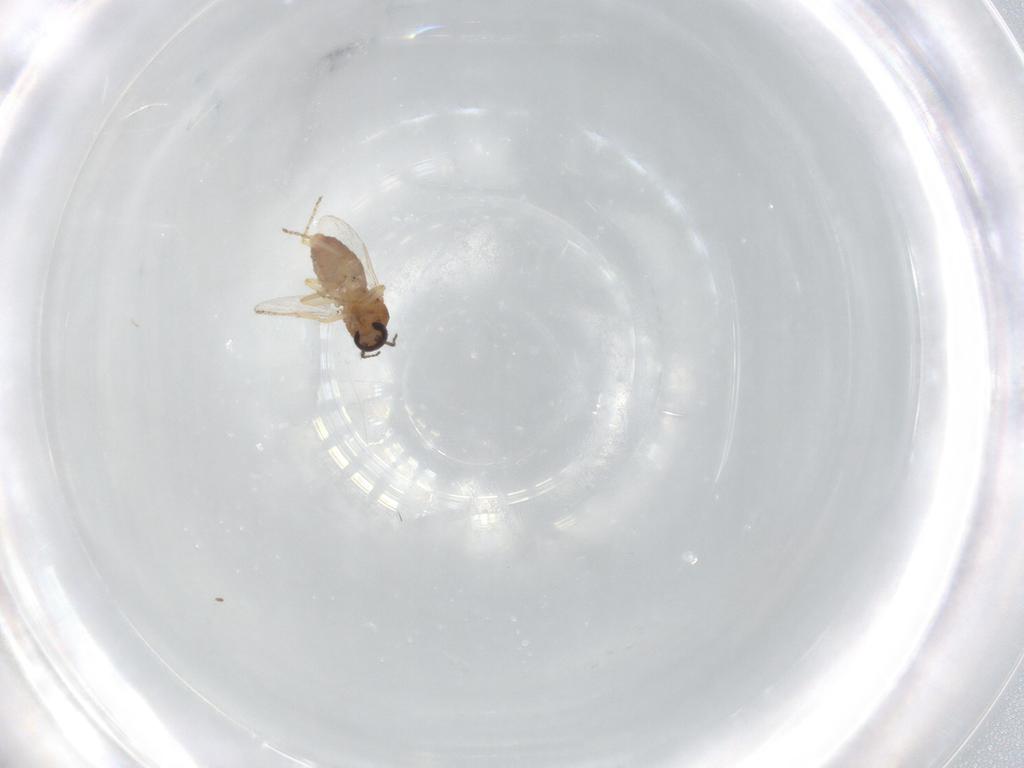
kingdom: Animalia
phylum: Arthropoda
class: Insecta
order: Diptera
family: Ceratopogonidae
